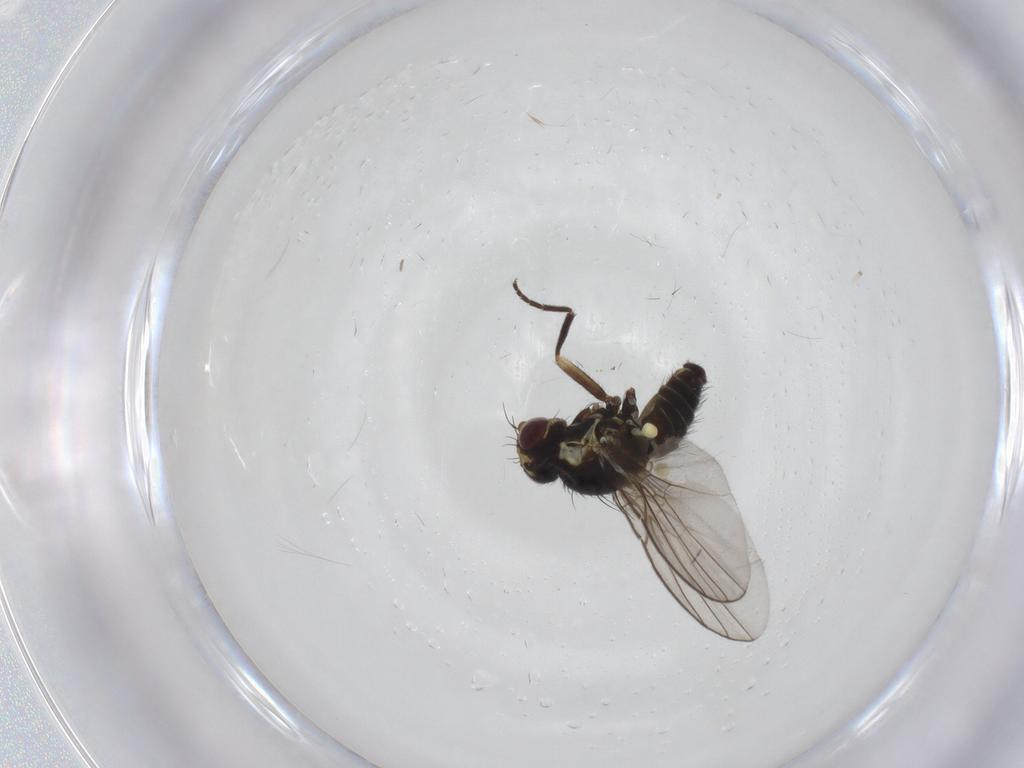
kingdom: Animalia
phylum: Arthropoda
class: Insecta
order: Diptera
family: Agromyzidae
